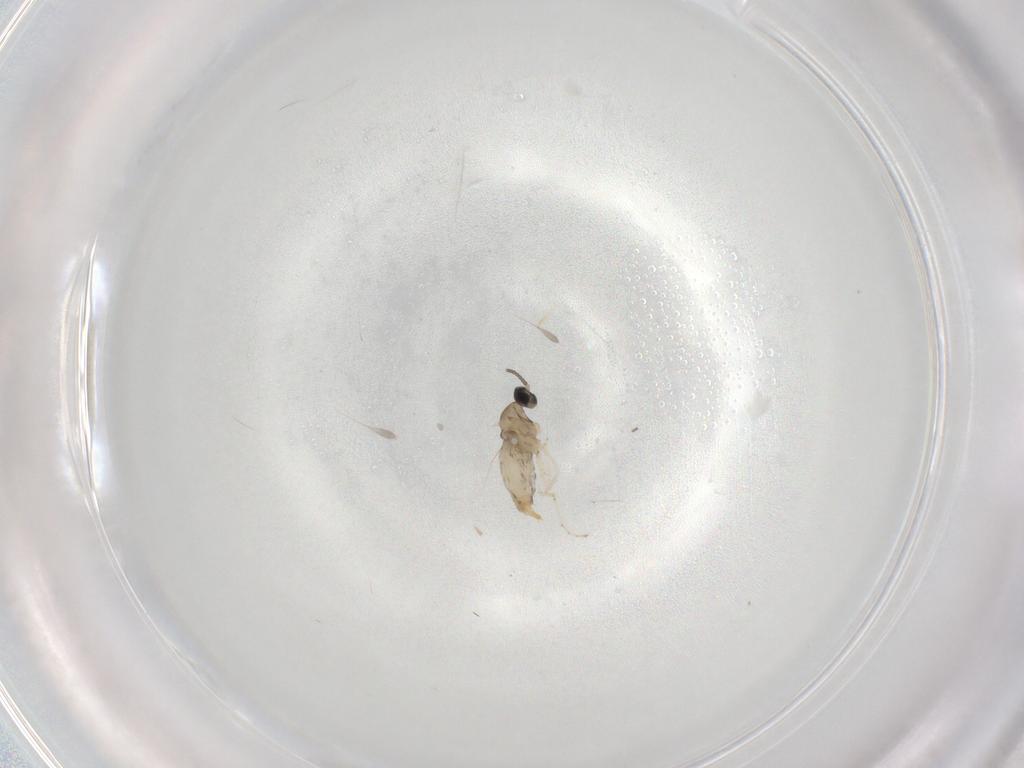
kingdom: Animalia
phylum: Arthropoda
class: Insecta
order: Diptera
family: Cecidomyiidae
